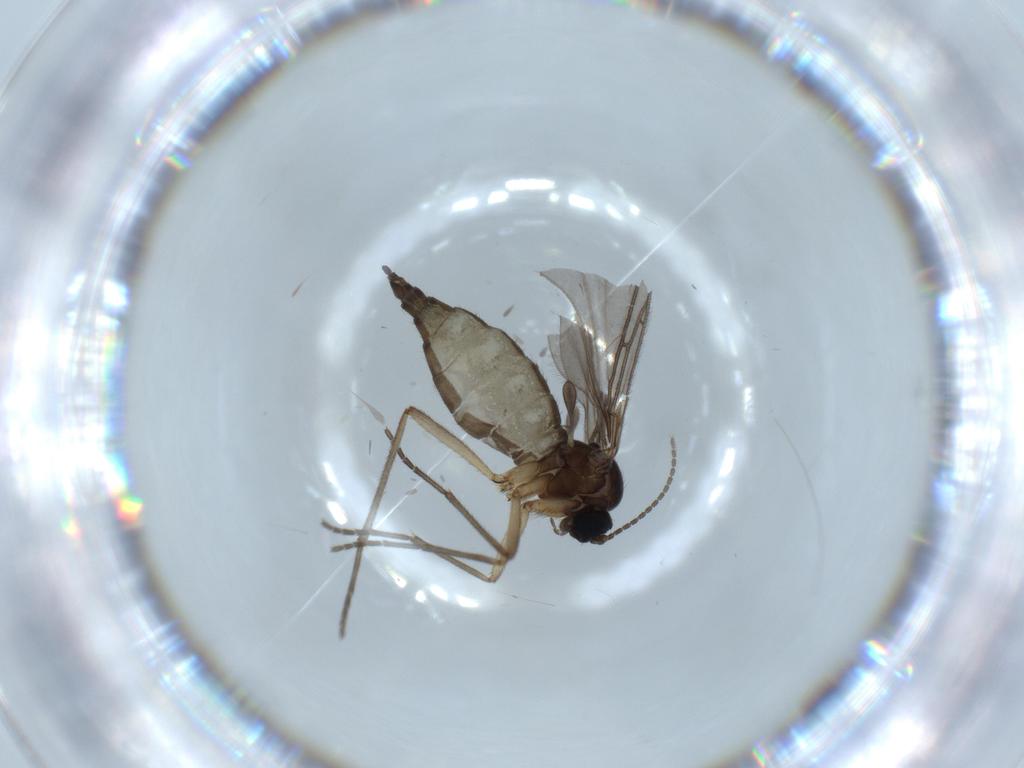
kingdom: Animalia
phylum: Arthropoda
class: Insecta
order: Diptera
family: Sciaridae
